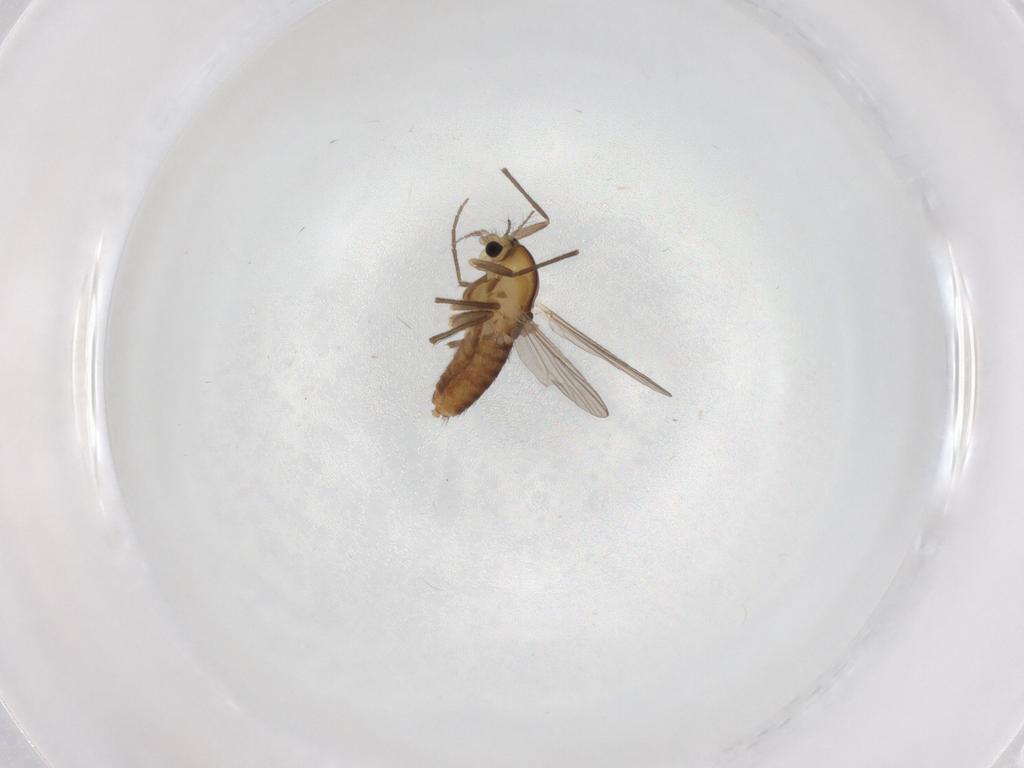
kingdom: Animalia
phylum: Arthropoda
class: Insecta
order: Diptera
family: Chironomidae
